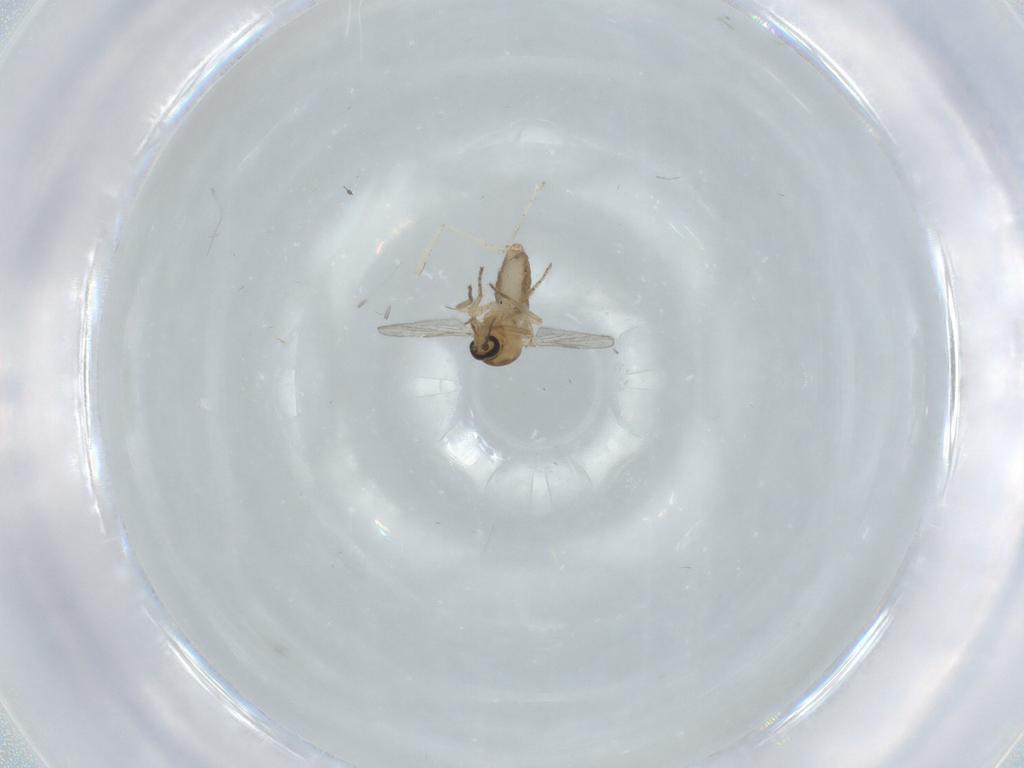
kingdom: Animalia
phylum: Arthropoda
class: Insecta
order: Diptera
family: Ceratopogonidae
